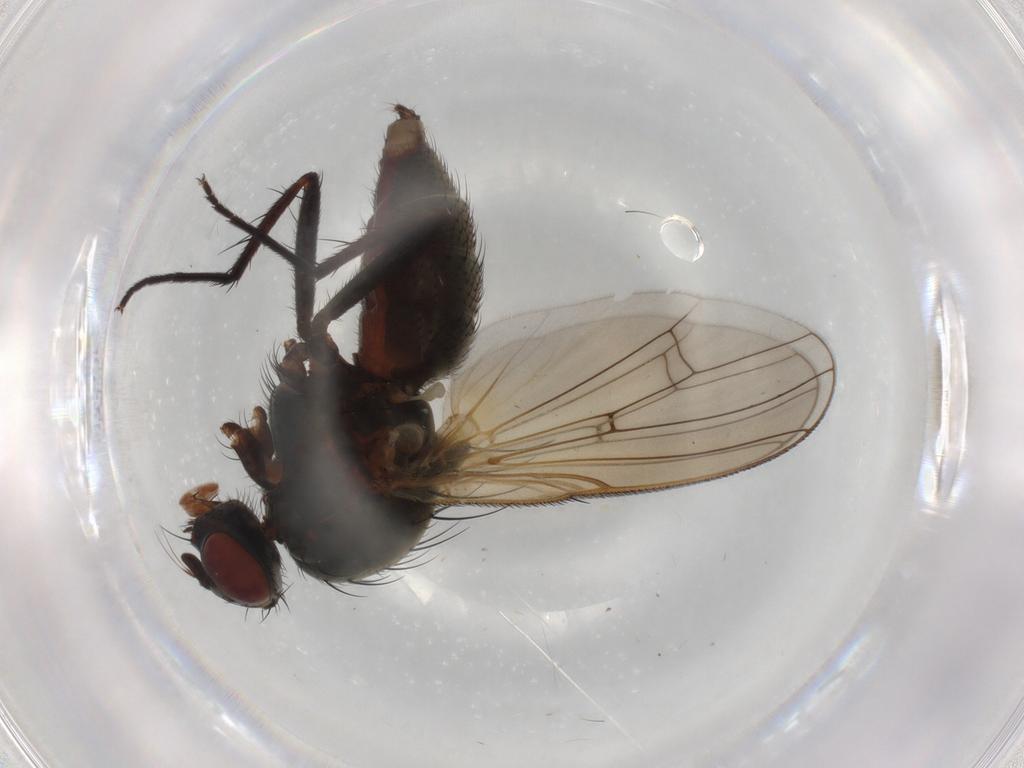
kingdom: Animalia
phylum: Arthropoda
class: Insecta
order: Diptera
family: Anthomyiidae
